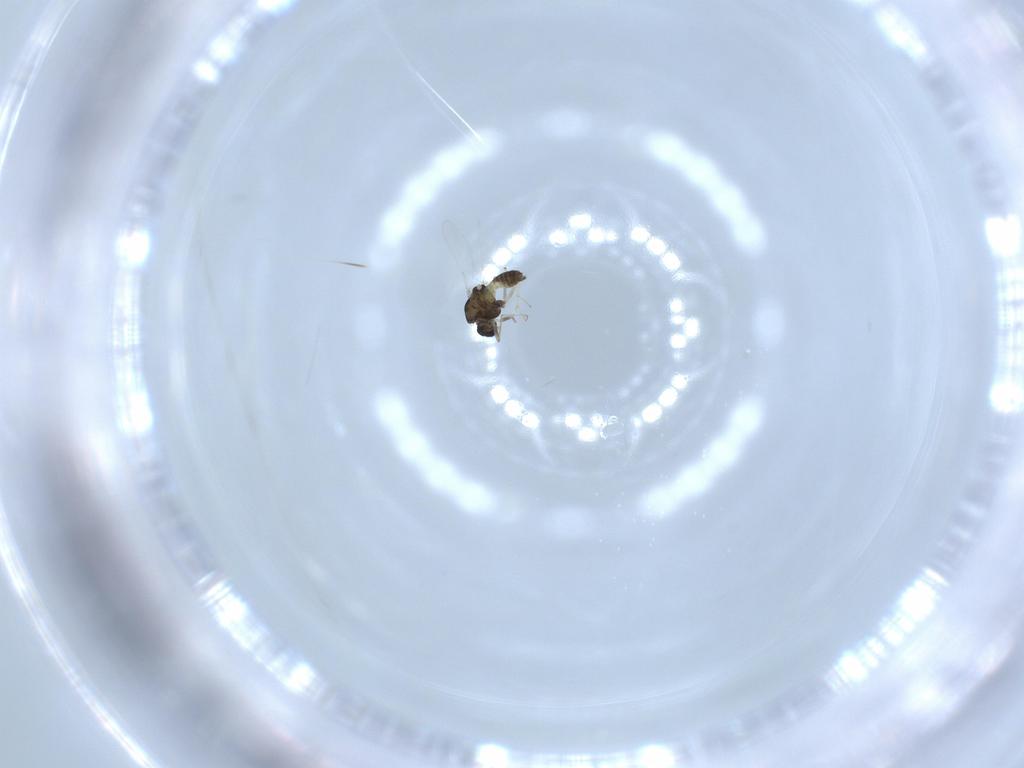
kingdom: Animalia
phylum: Arthropoda
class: Insecta
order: Diptera
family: Chironomidae
